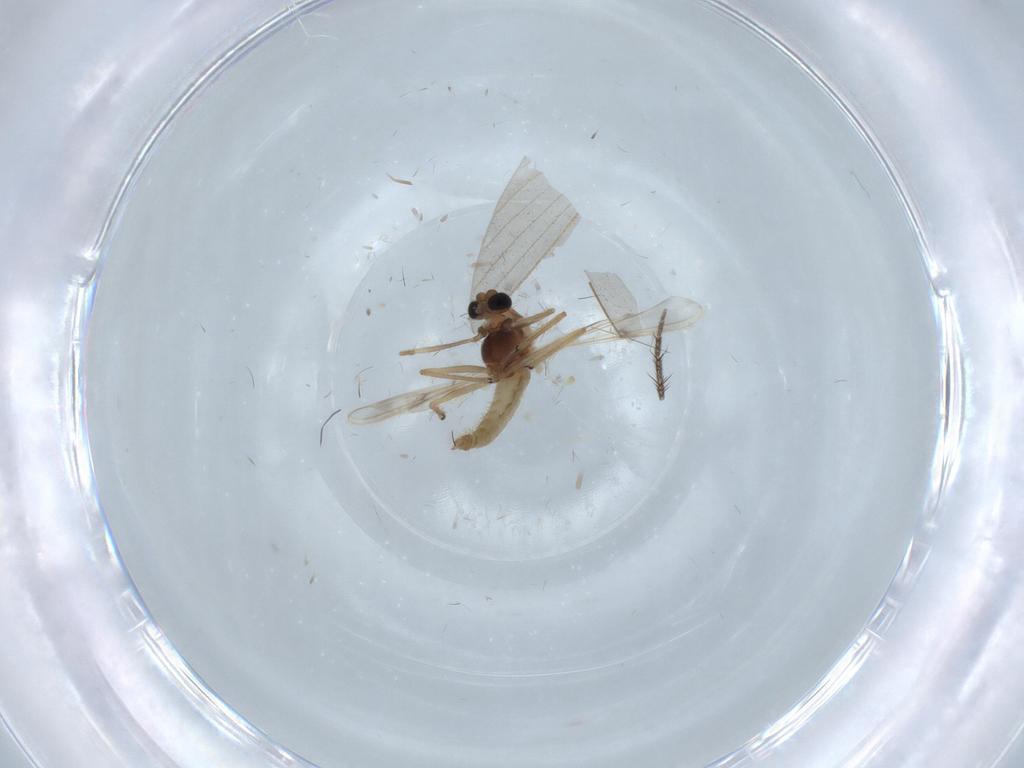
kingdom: Animalia
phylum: Arthropoda
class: Insecta
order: Diptera
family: Chironomidae
